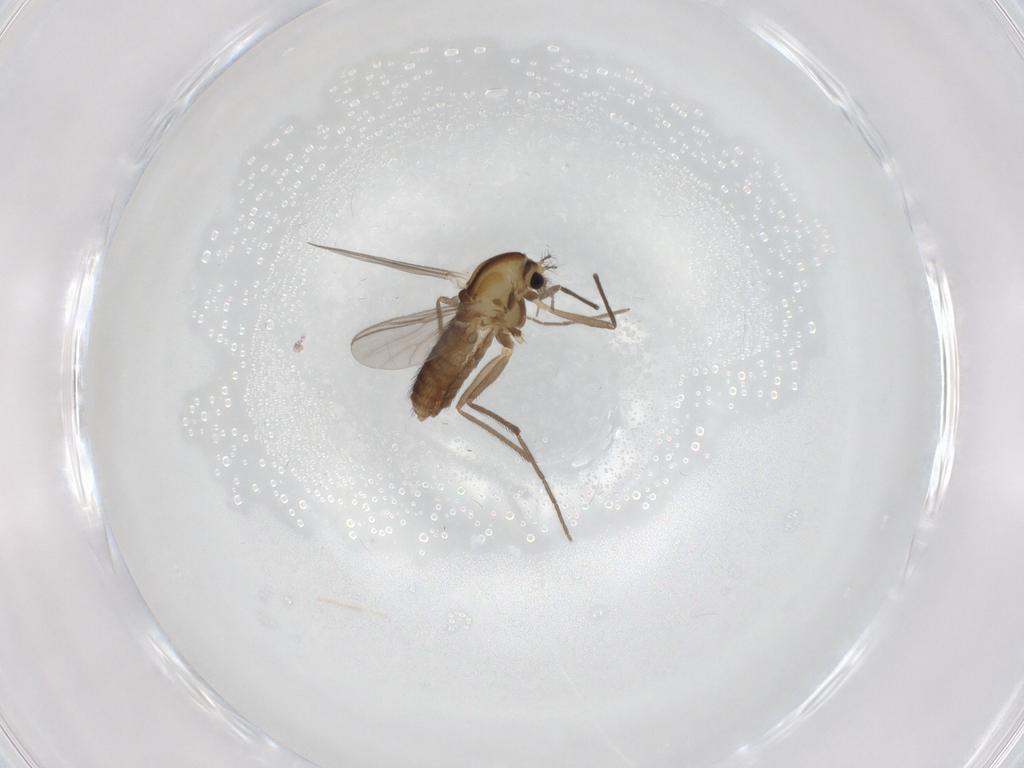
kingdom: Animalia
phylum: Arthropoda
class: Insecta
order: Diptera
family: Chironomidae
